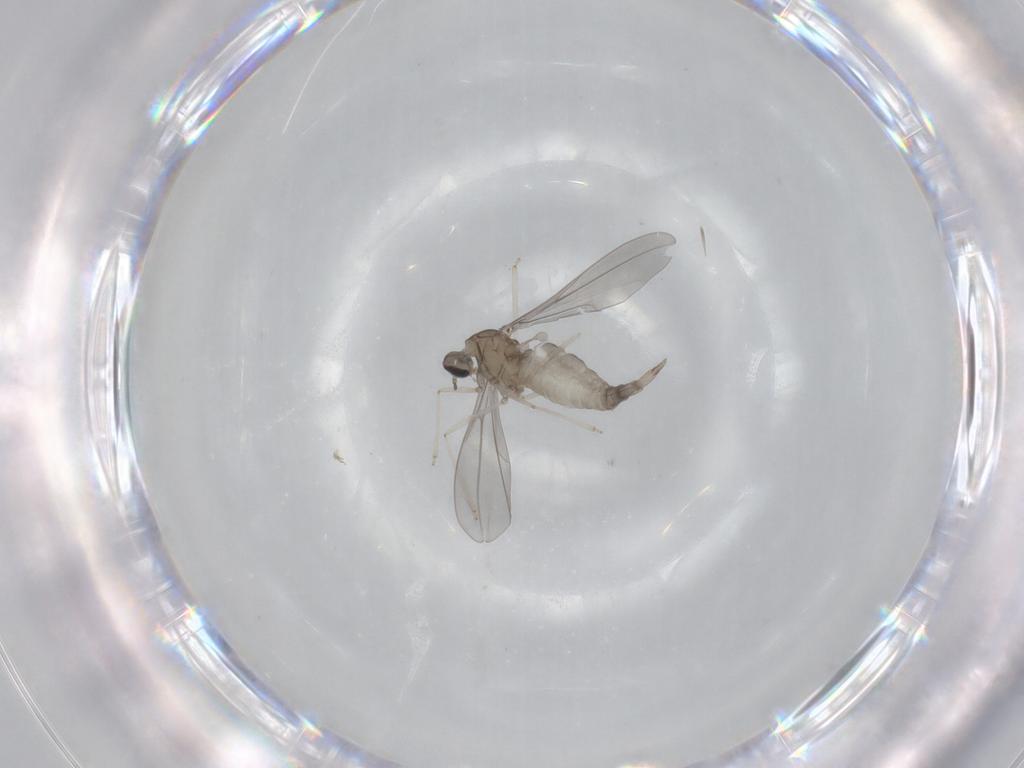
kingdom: Animalia
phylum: Arthropoda
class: Insecta
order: Diptera
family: Cecidomyiidae
